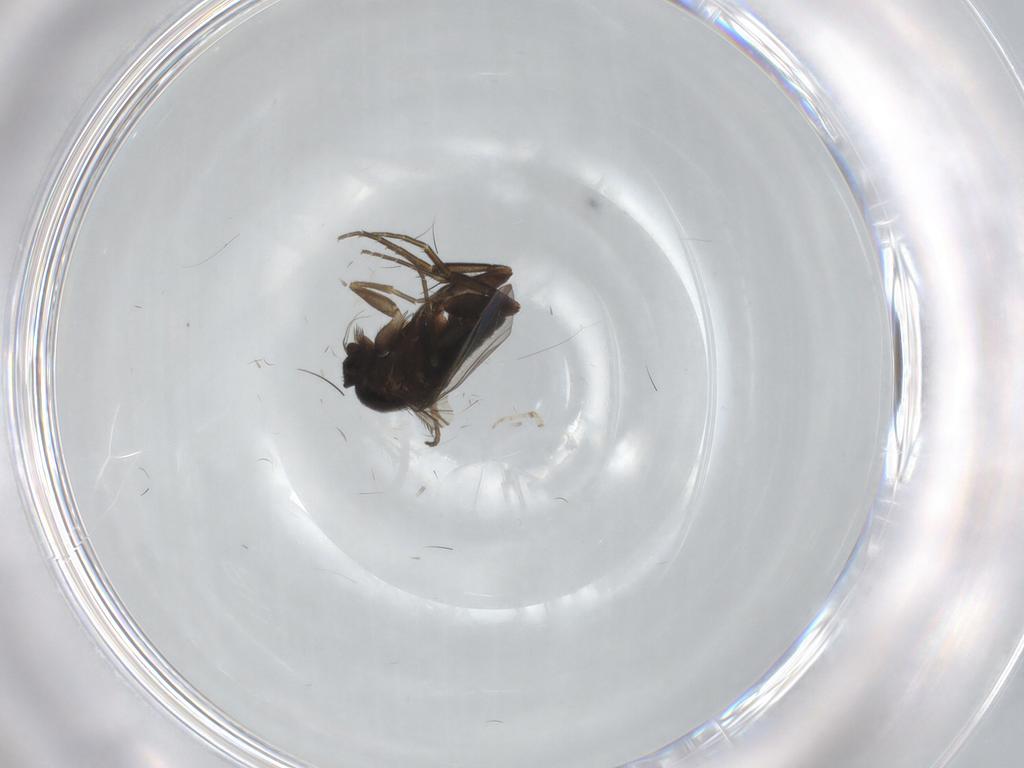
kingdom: Animalia
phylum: Arthropoda
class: Insecta
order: Diptera
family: Phoridae
